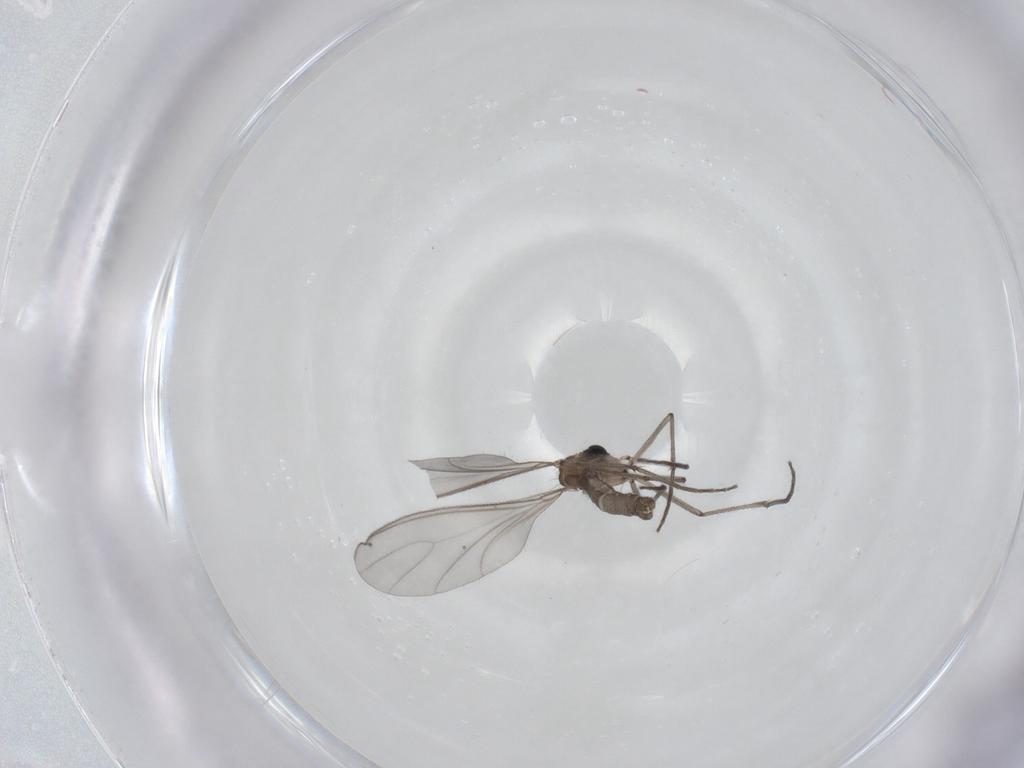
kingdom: Animalia
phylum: Arthropoda
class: Insecta
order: Diptera
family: Sciaridae
